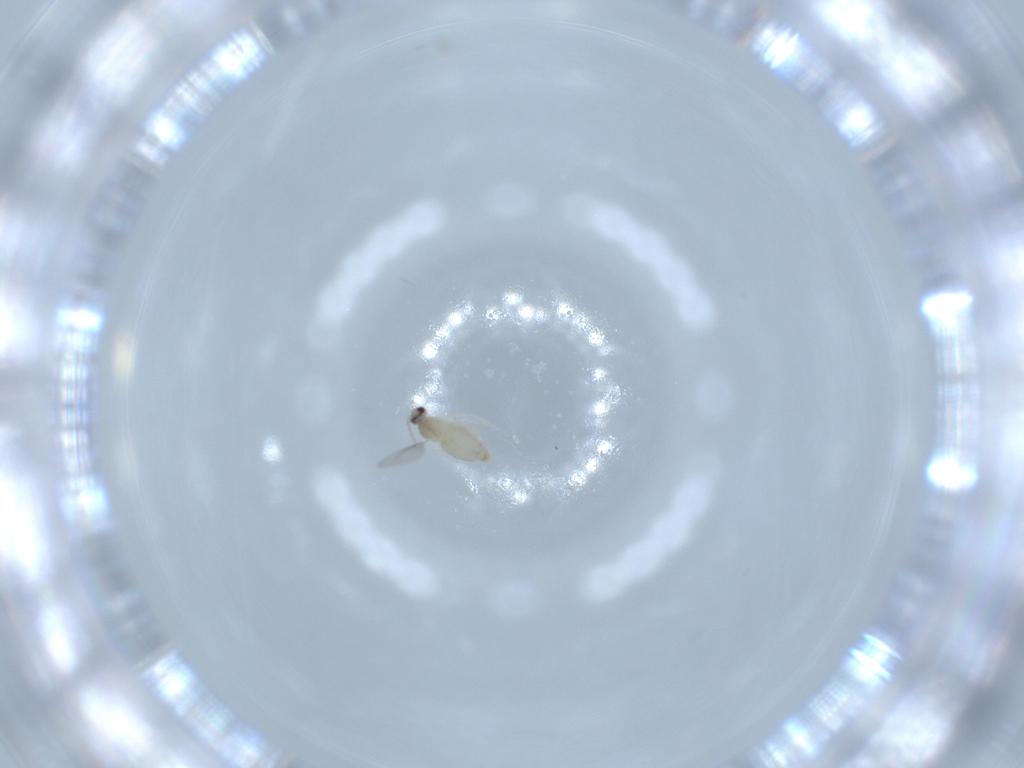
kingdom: Animalia
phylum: Arthropoda
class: Insecta
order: Diptera
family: Cecidomyiidae
